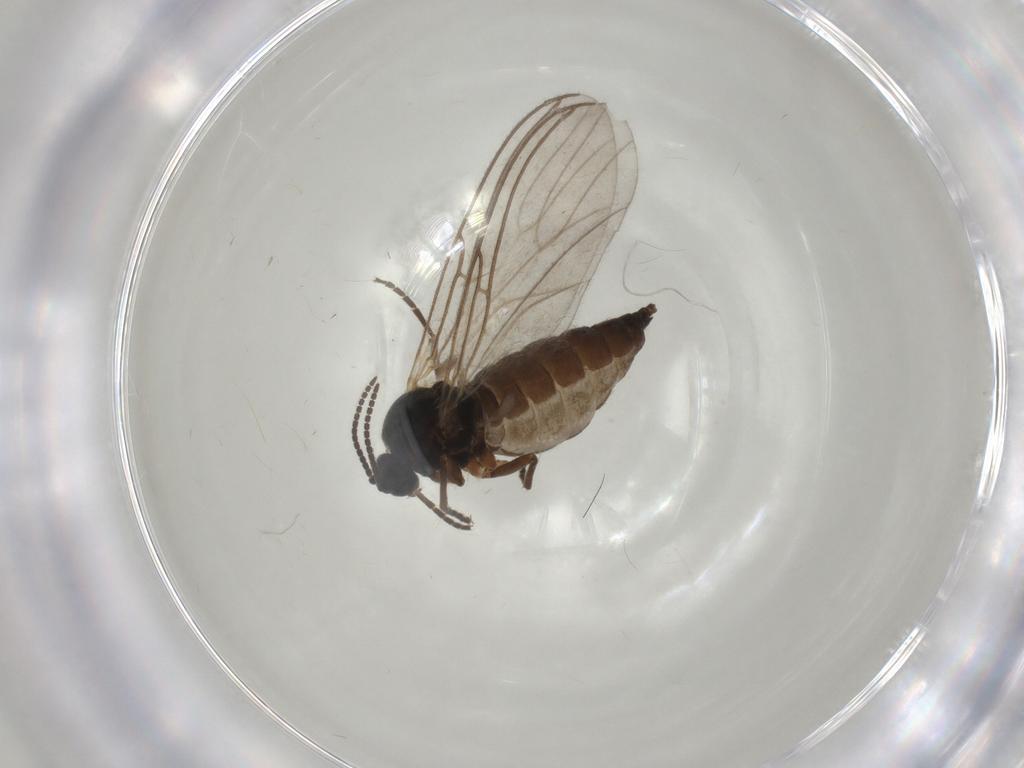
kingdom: Animalia
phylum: Arthropoda
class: Insecta
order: Diptera
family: Sciaridae
